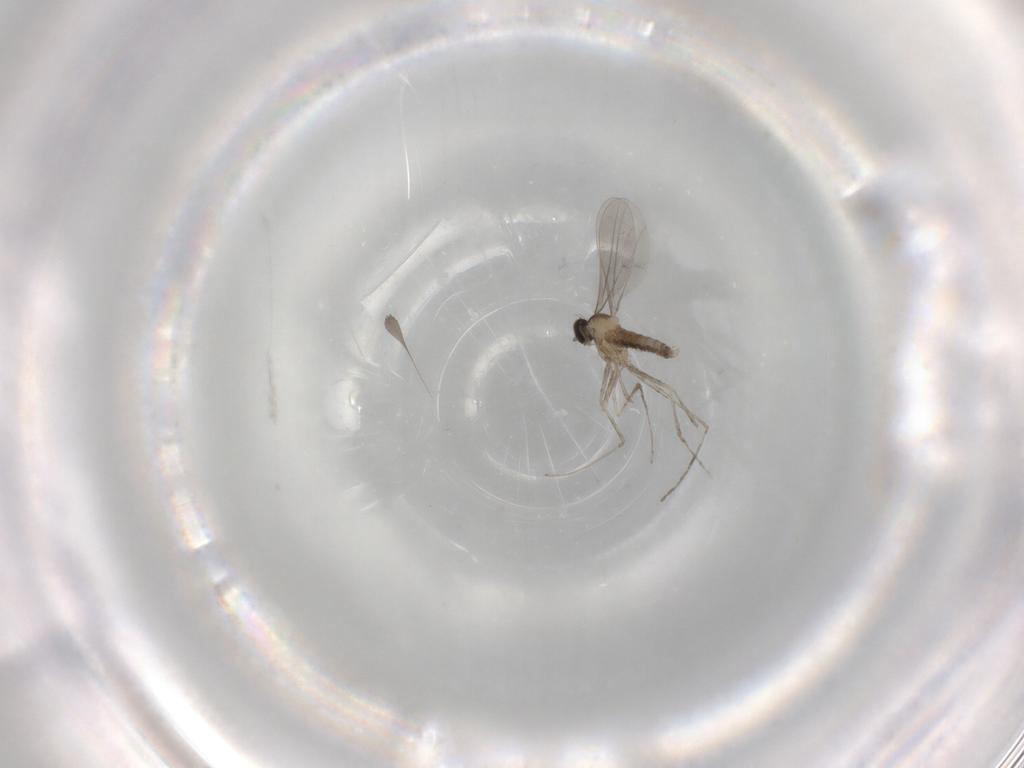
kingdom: Animalia
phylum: Arthropoda
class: Insecta
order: Diptera
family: Cecidomyiidae
